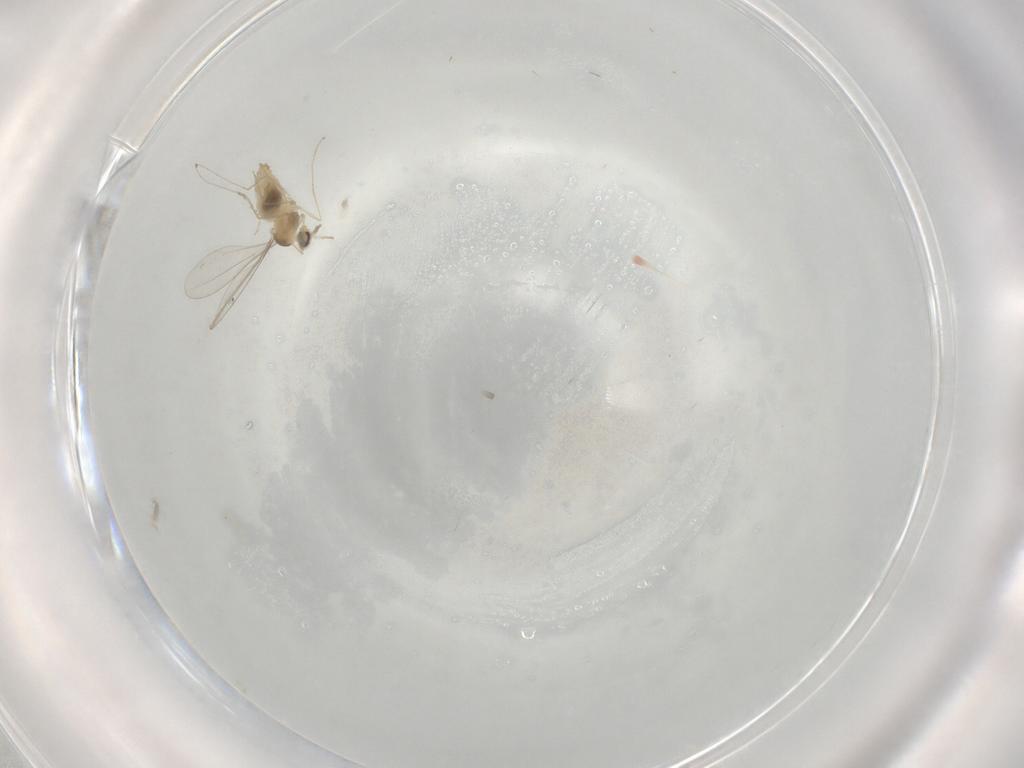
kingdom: Animalia
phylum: Arthropoda
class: Insecta
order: Diptera
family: Cecidomyiidae
